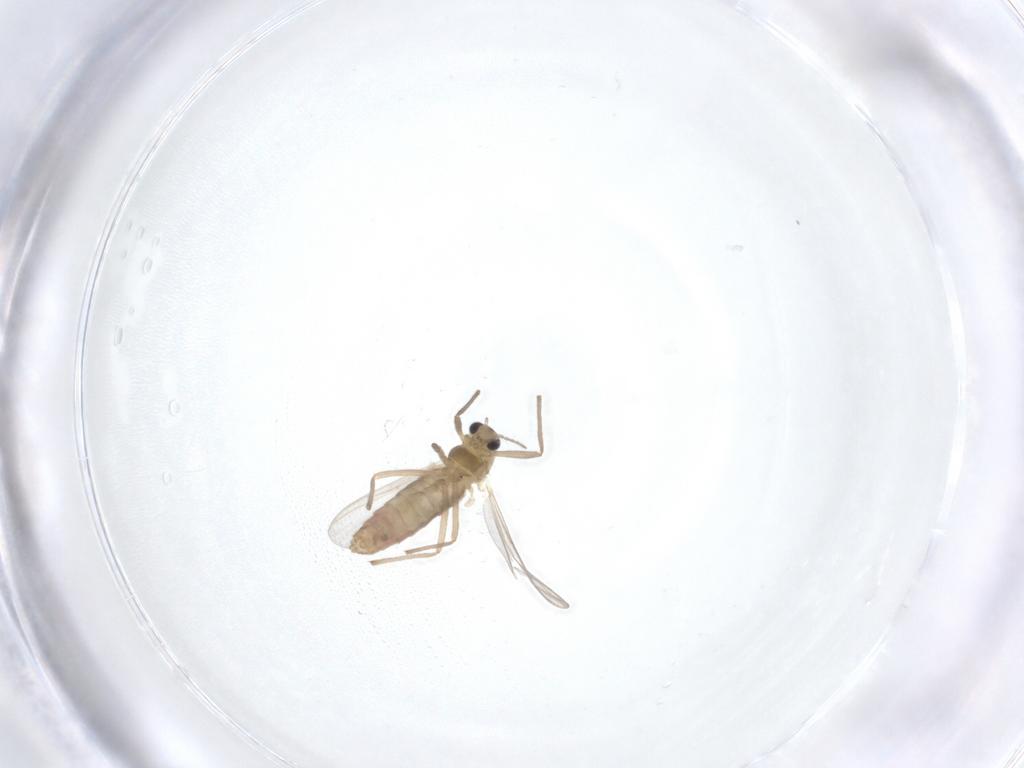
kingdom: Animalia
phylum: Arthropoda
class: Insecta
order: Diptera
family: Chironomidae
